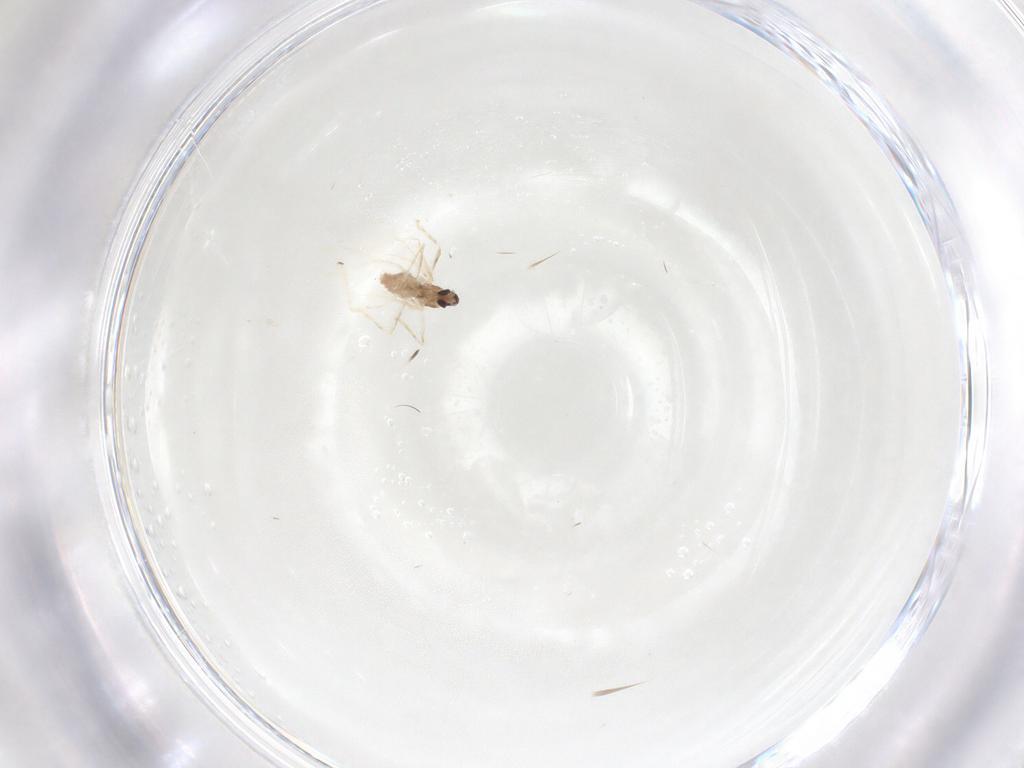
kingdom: Animalia
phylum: Arthropoda
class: Insecta
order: Diptera
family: Cecidomyiidae
